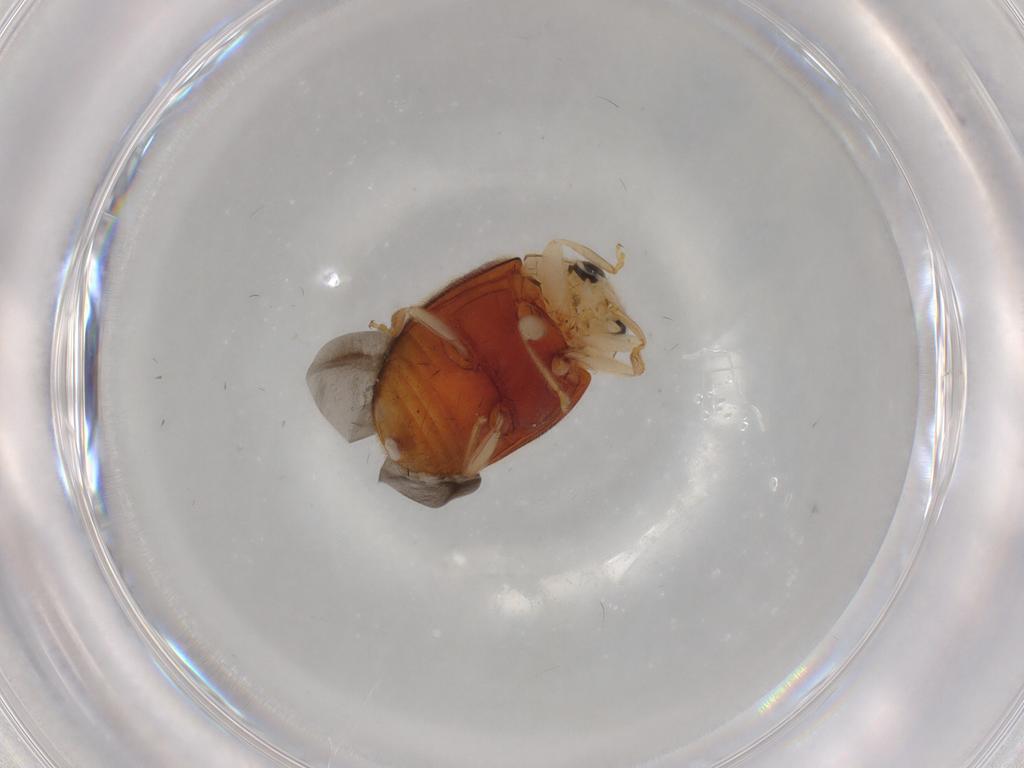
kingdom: Animalia
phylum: Arthropoda
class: Insecta
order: Coleoptera
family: Coccinellidae
